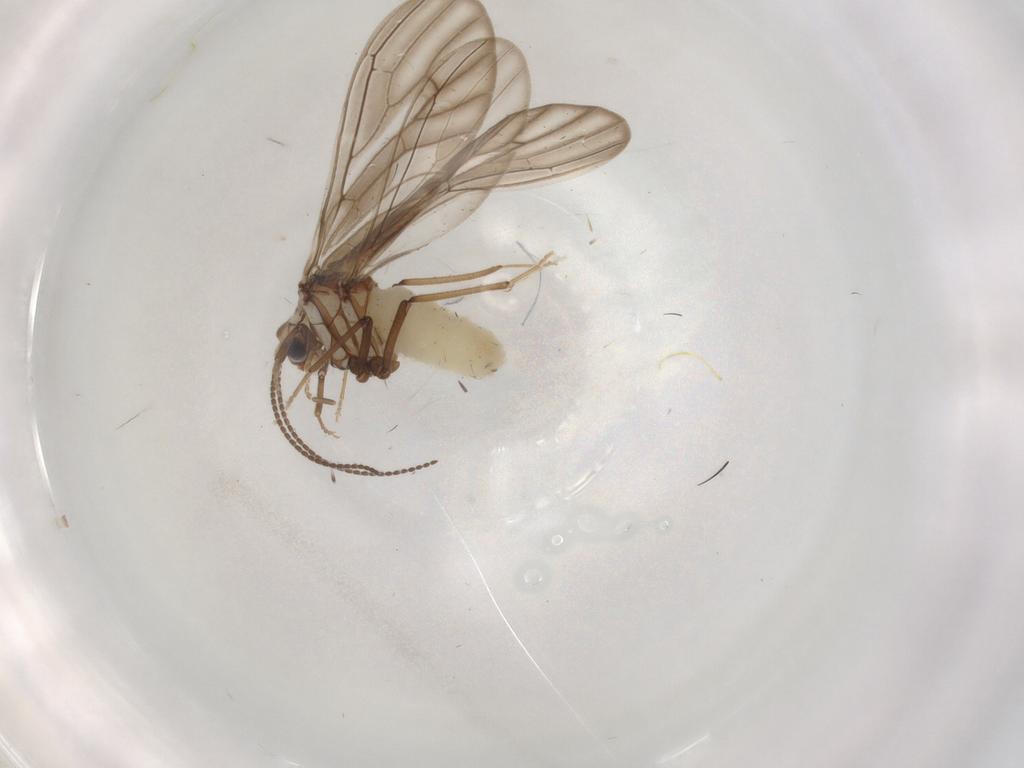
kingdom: Animalia
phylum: Arthropoda
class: Insecta
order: Neuroptera
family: Coniopterygidae
